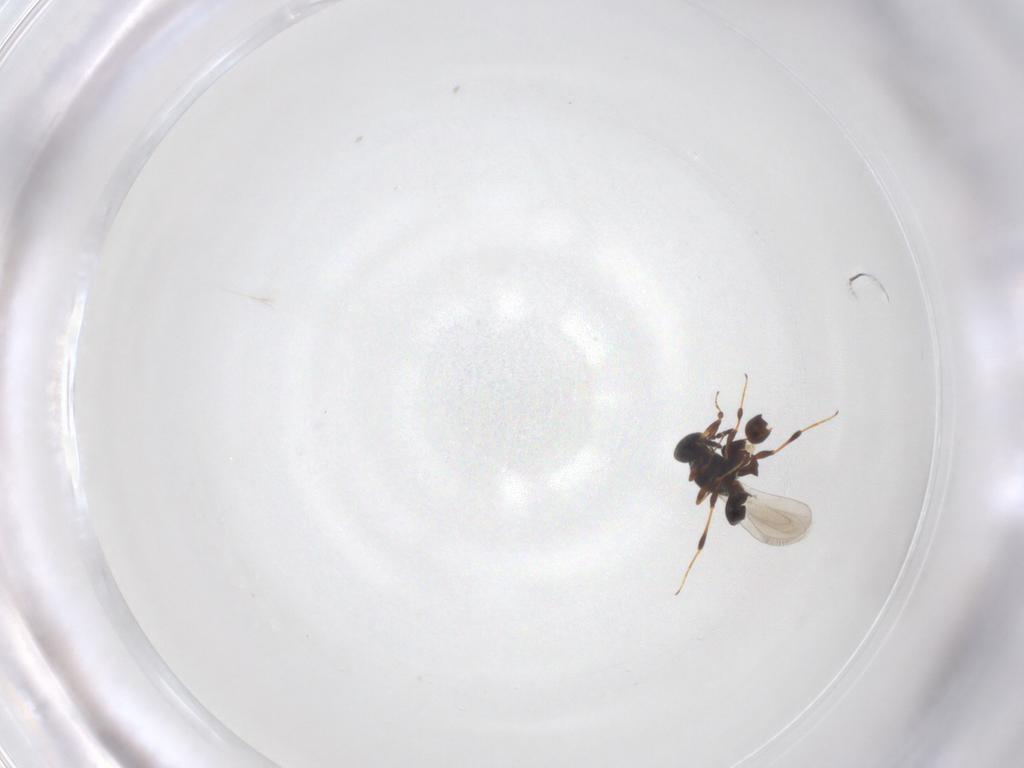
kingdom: Animalia
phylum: Arthropoda
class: Insecta
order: Hymenoptera
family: Platygastridae
